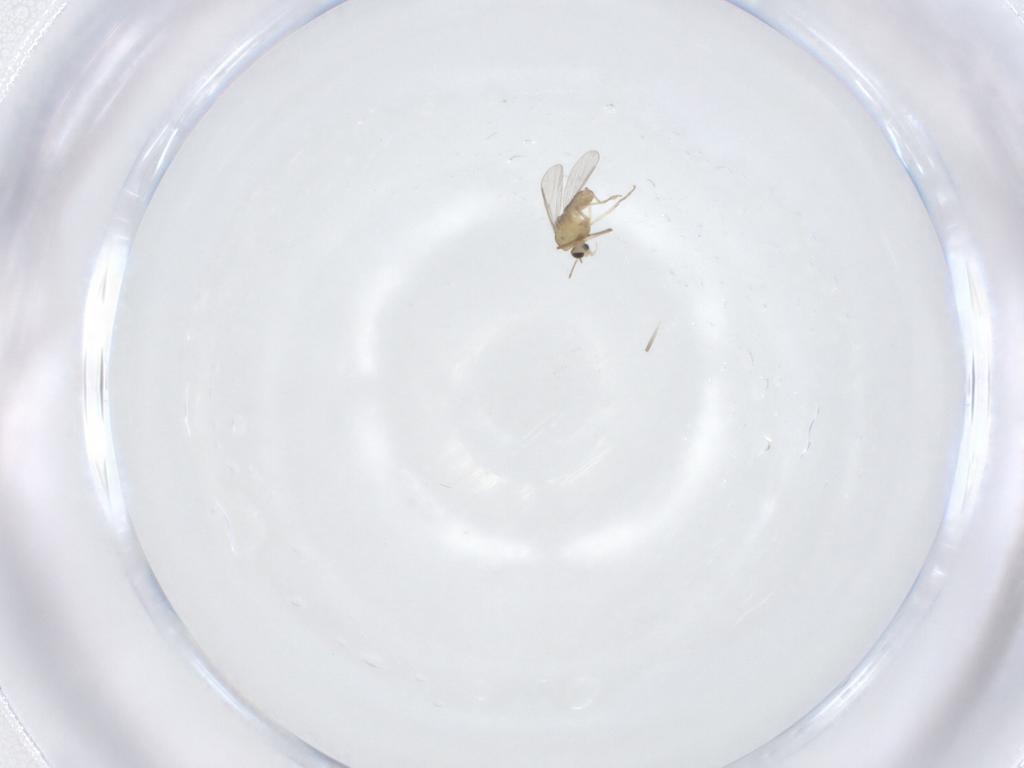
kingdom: Animalia
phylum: Arthropoda
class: Insecta
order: Diptera
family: Chironomidae
